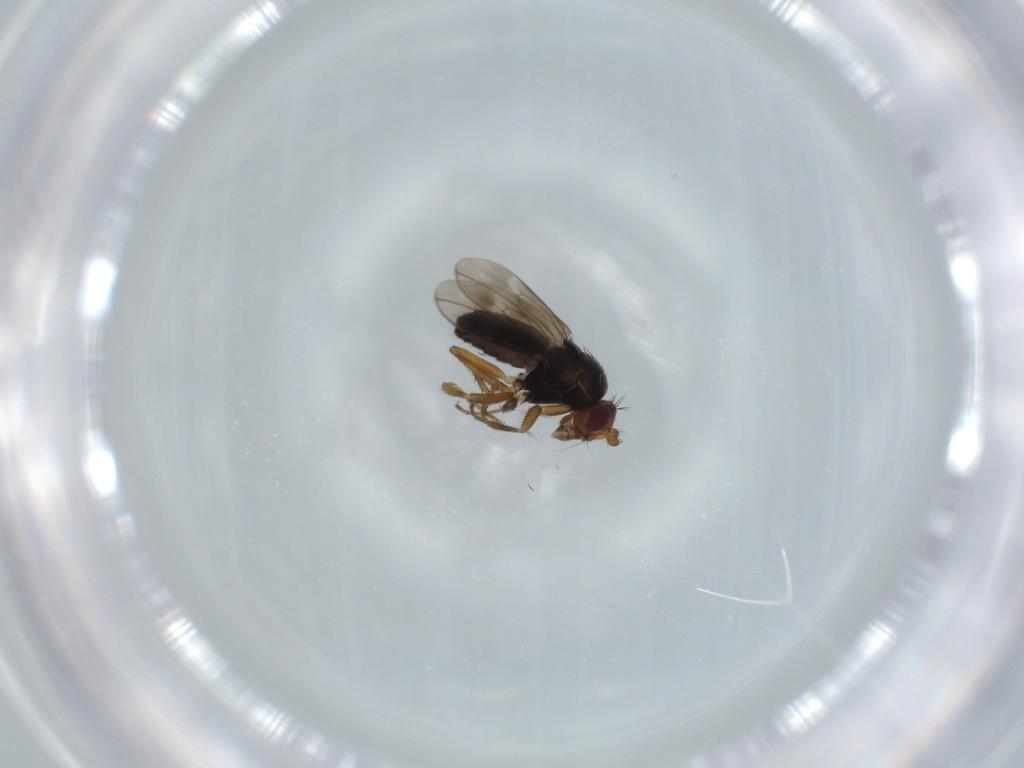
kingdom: Animalia
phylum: Arthropoda
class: Insecta
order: Diptera
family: Sphaeroceridae
